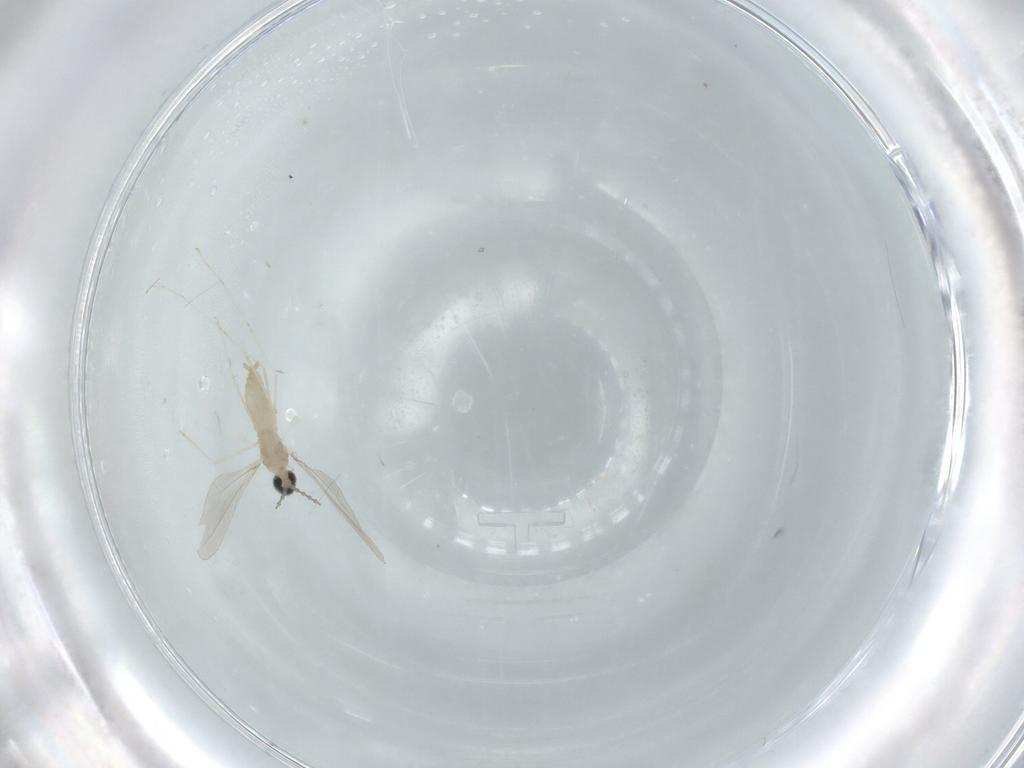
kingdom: Animalia
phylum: Arthropoda
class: Insecta
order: Diptera
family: Cecidomyiidae
